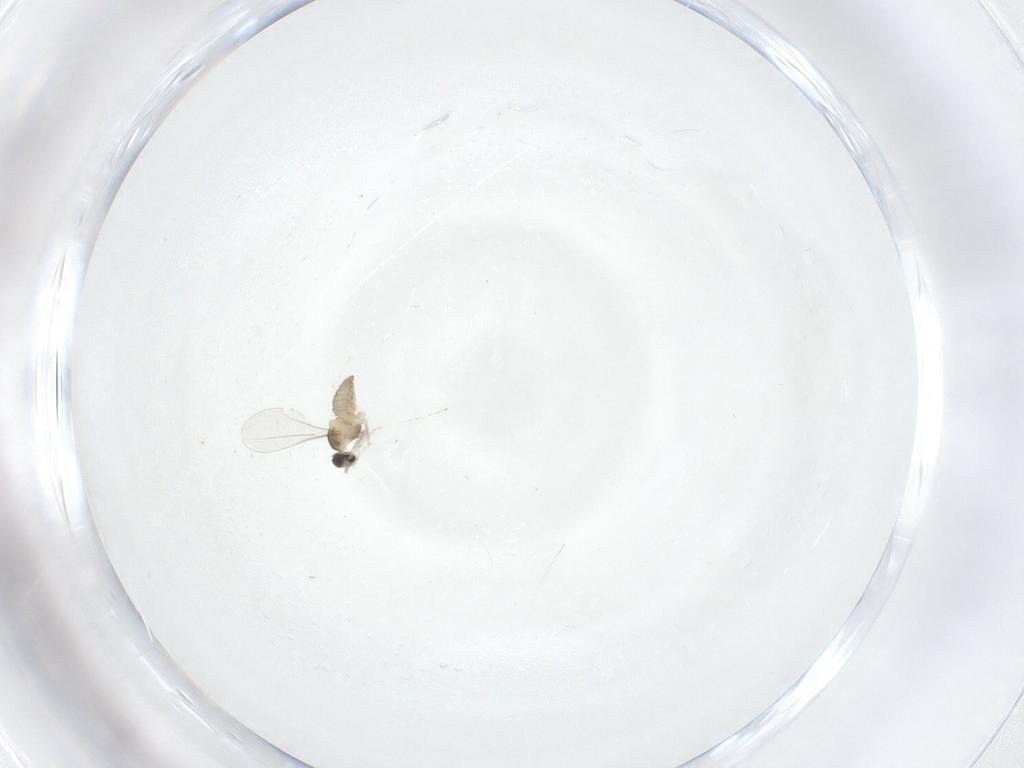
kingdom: Animalia
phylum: Arthropoda
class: Insecta
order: Diptera
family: Cecidomyiidae
